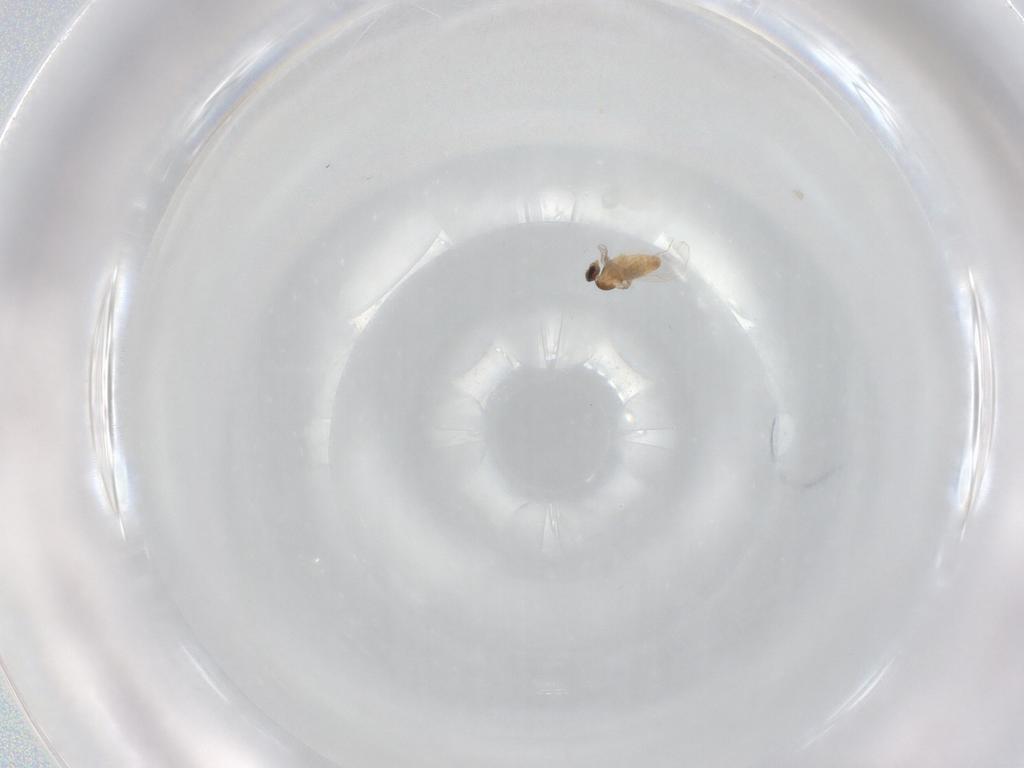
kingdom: Animalia
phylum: Arthropoda
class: Insecta
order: Diptera
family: Cecidomyiidae
